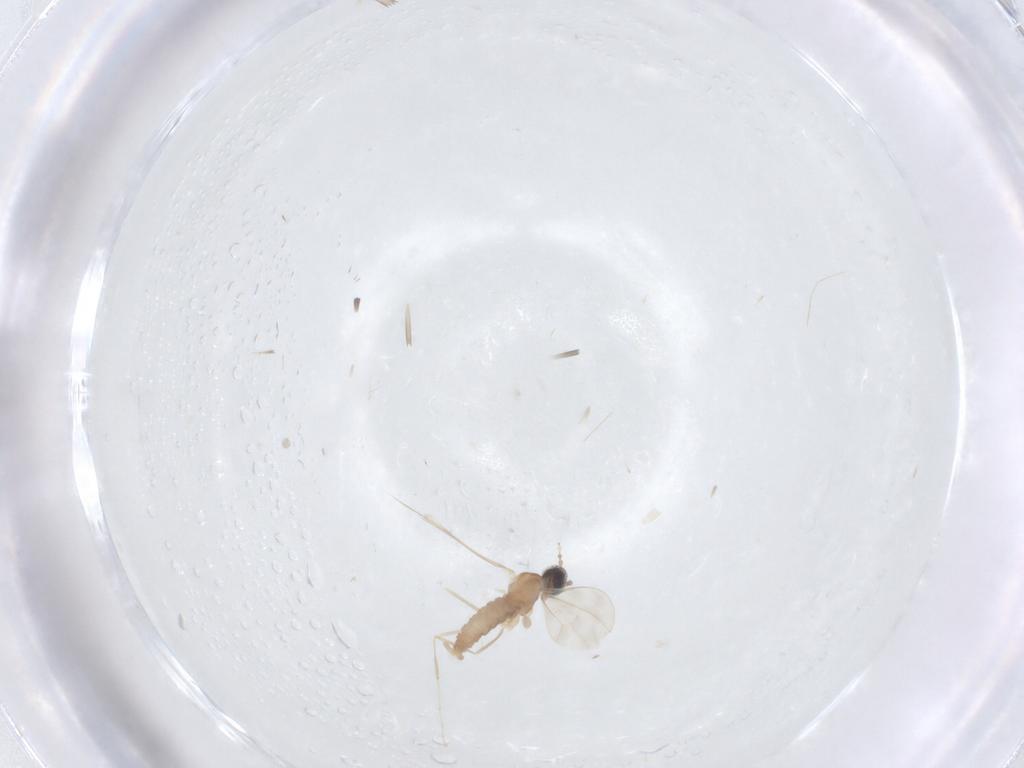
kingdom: Animalia
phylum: Arthropoda
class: Insecta
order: Diptera
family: Cecidomyiidae
